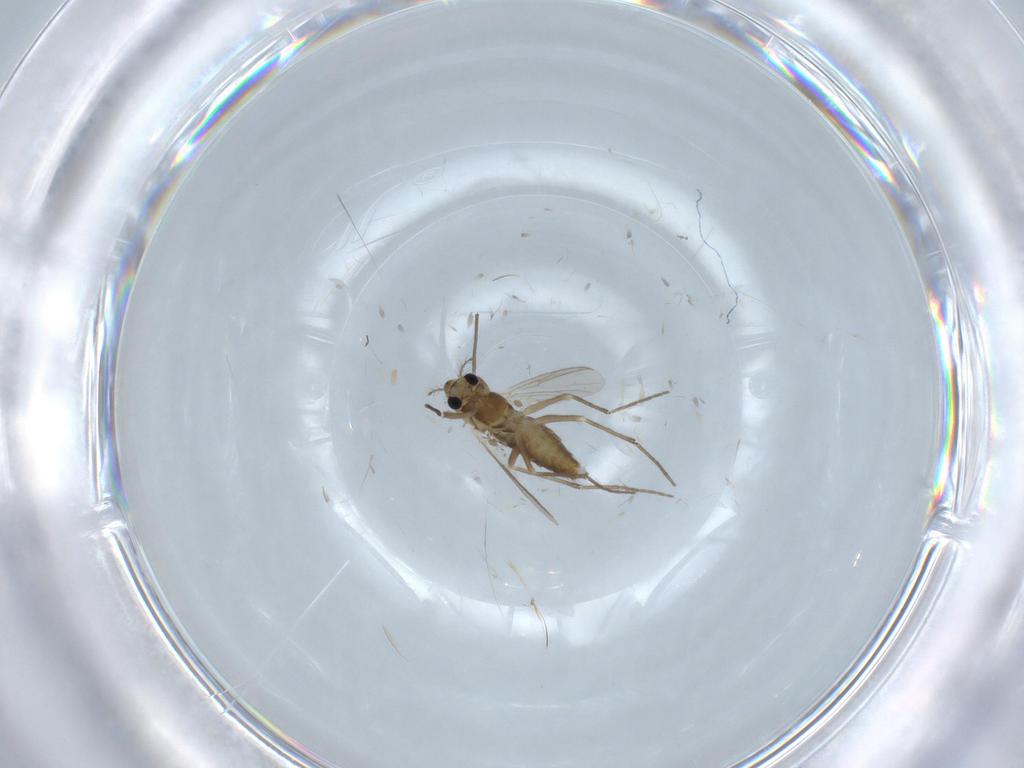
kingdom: Animalia
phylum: Arthropoda
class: Insecta
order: Diptera
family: Chironomidae
